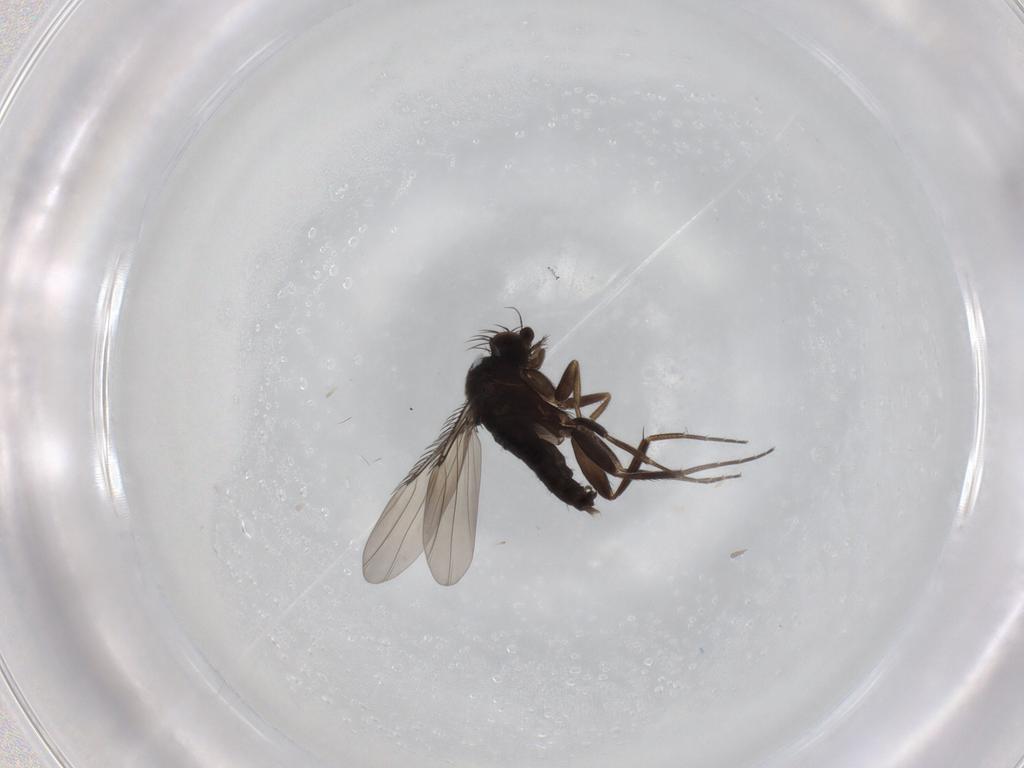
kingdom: Animalia
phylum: Arthropoda
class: Insecta
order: Diptera
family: Phoridae
